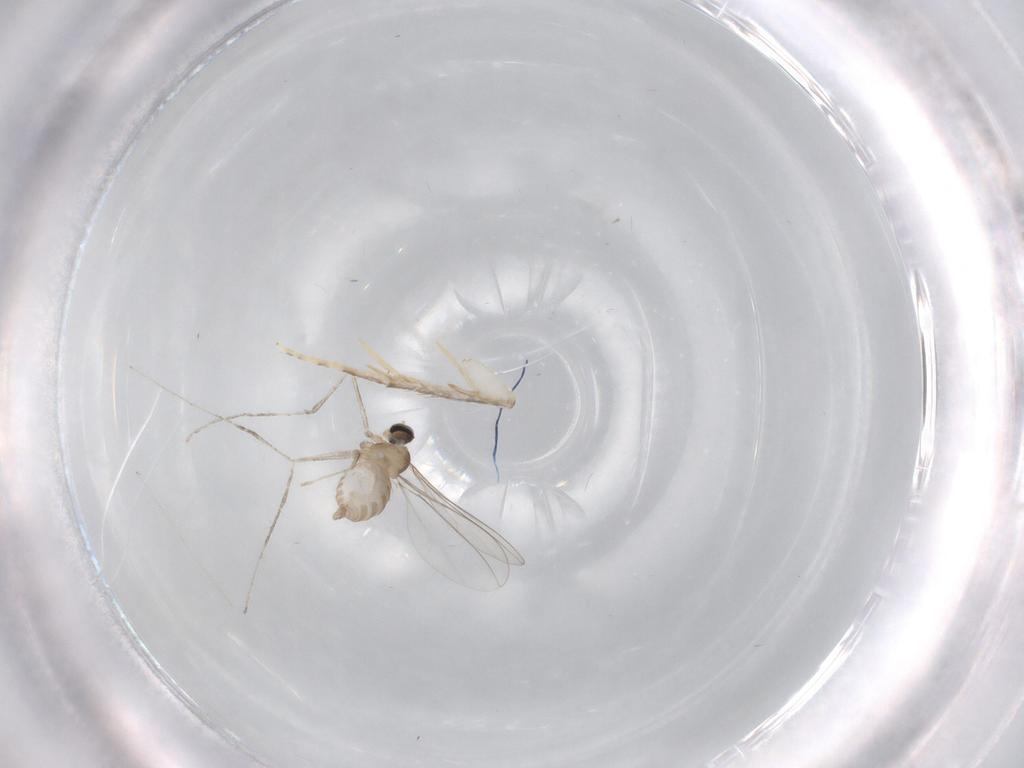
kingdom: Animalia
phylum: Arthropoda
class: Insecta
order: Diptera
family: Cecidomyiidae
